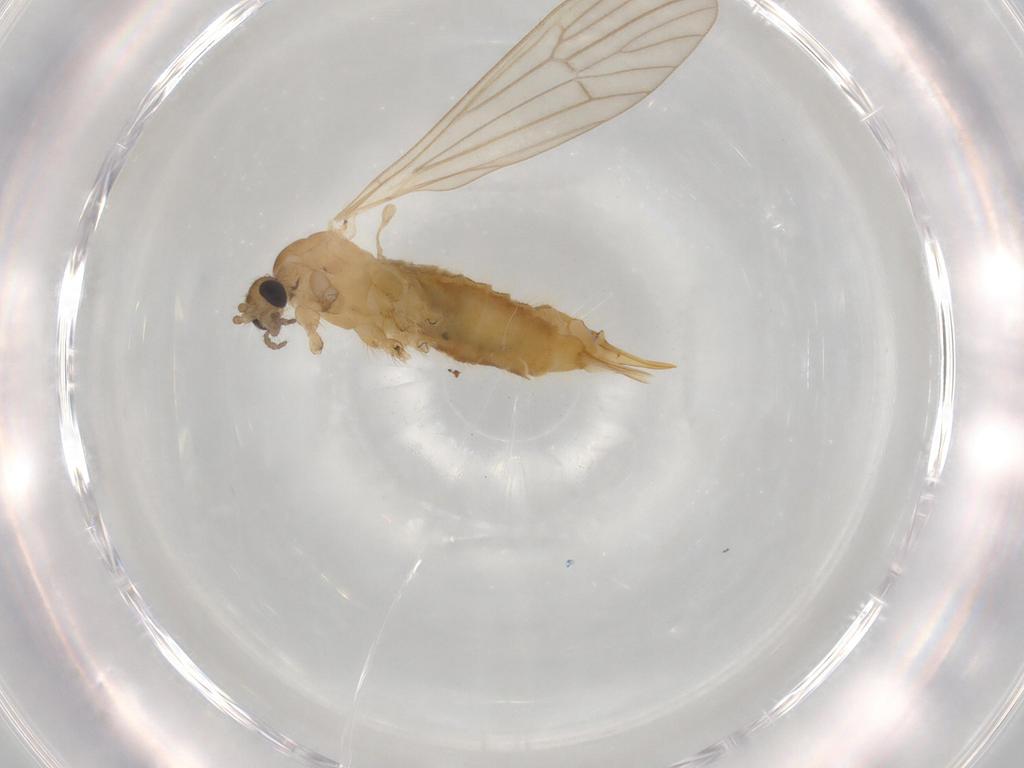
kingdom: Animalia
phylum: Arthropoda
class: Insecta
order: Diptera
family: Limoniidae
